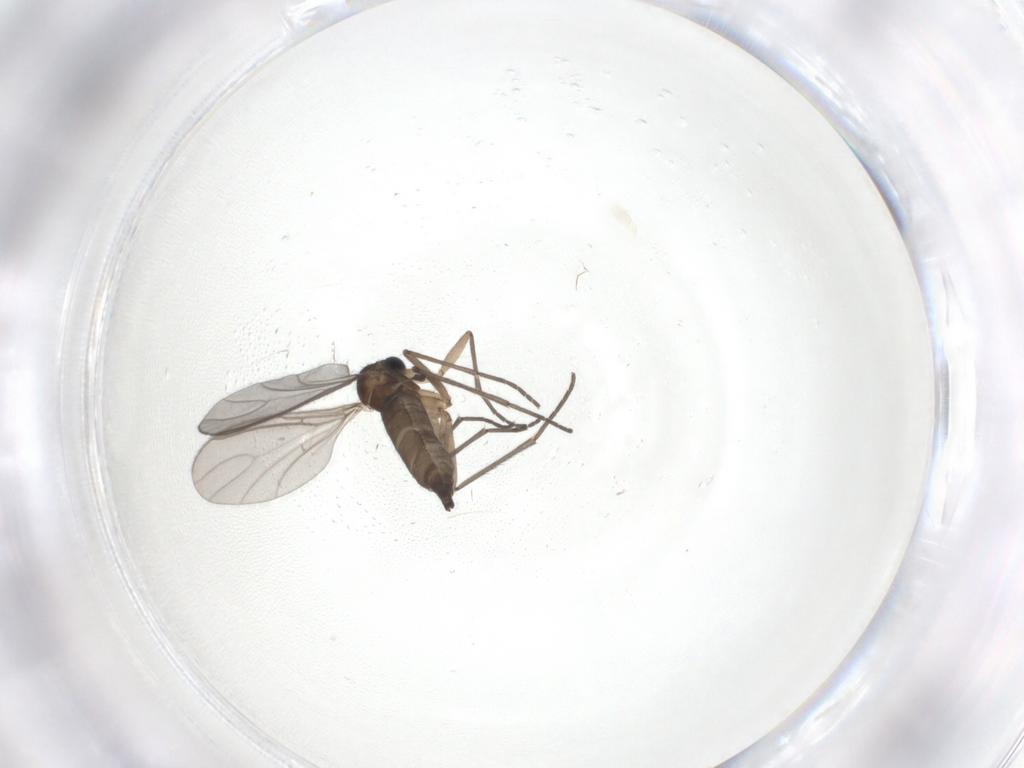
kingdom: Animalia
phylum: Arthropoda
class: Insecta
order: Diptera
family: Sciaridae
